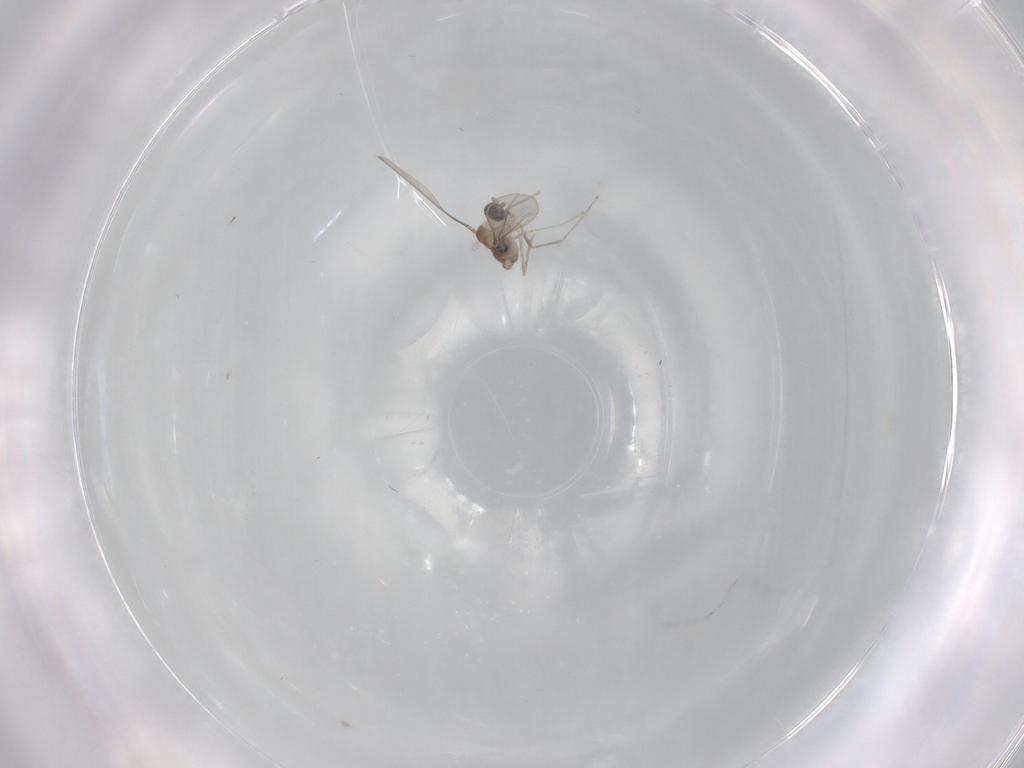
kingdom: Animalia
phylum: Arthropoda
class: Insecta
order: Diptera
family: Cecidomyiidae
